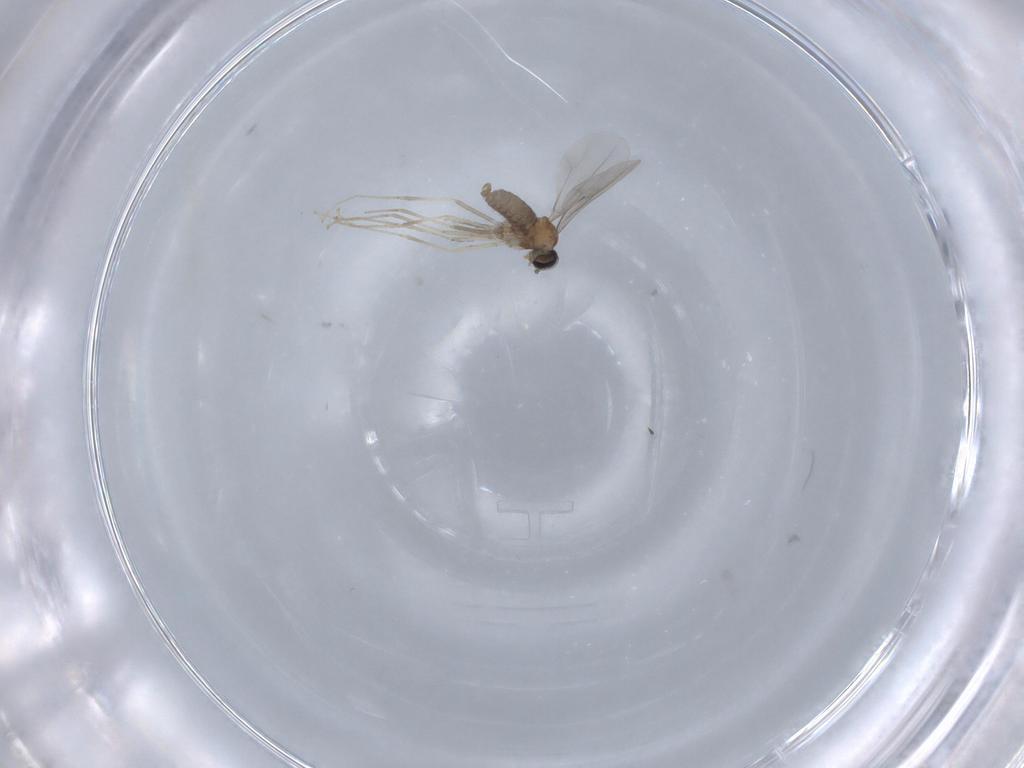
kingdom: Animalia
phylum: Arthropoda
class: Insecta
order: Diptera
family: Cecidomyiidae
